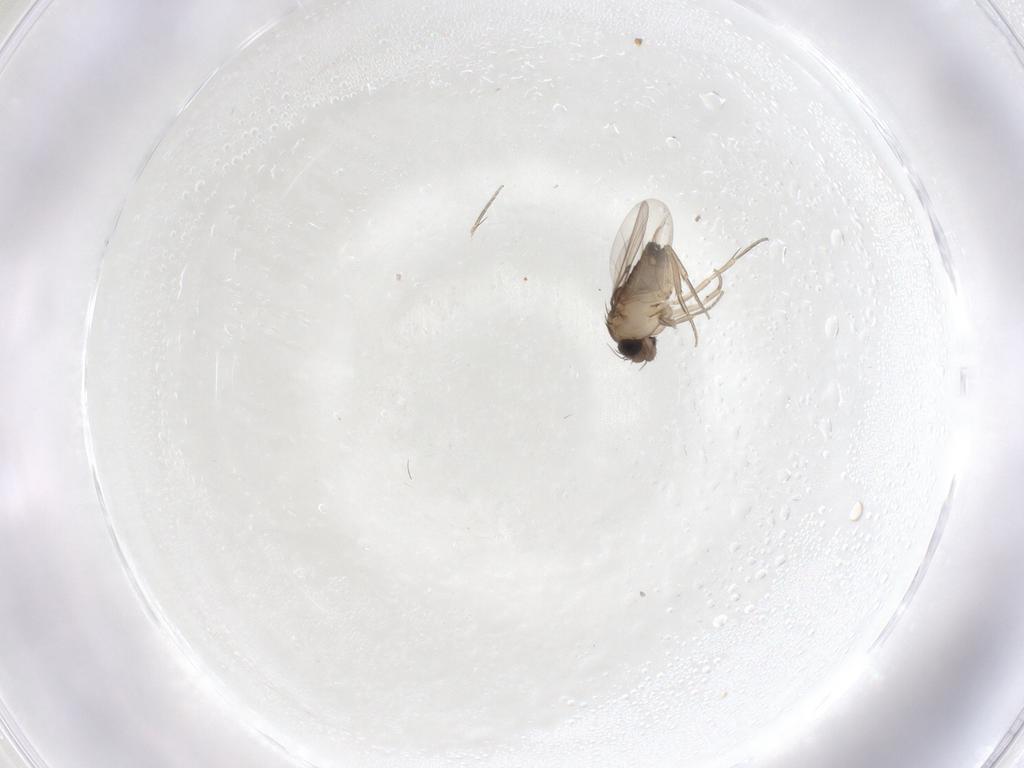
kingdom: Animalia
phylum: Arthropoda
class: Insecta
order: Diptera
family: Phoridae
